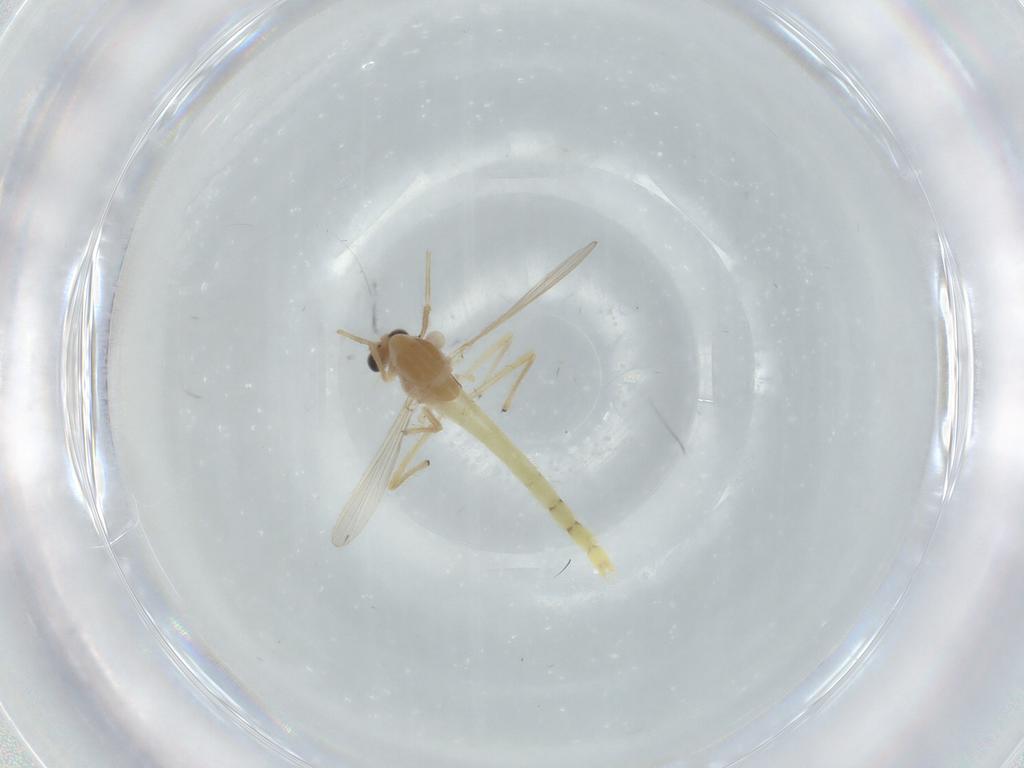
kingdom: Animalia
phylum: Arthropoda
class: Insecta
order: Diptera
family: Chironomidae
